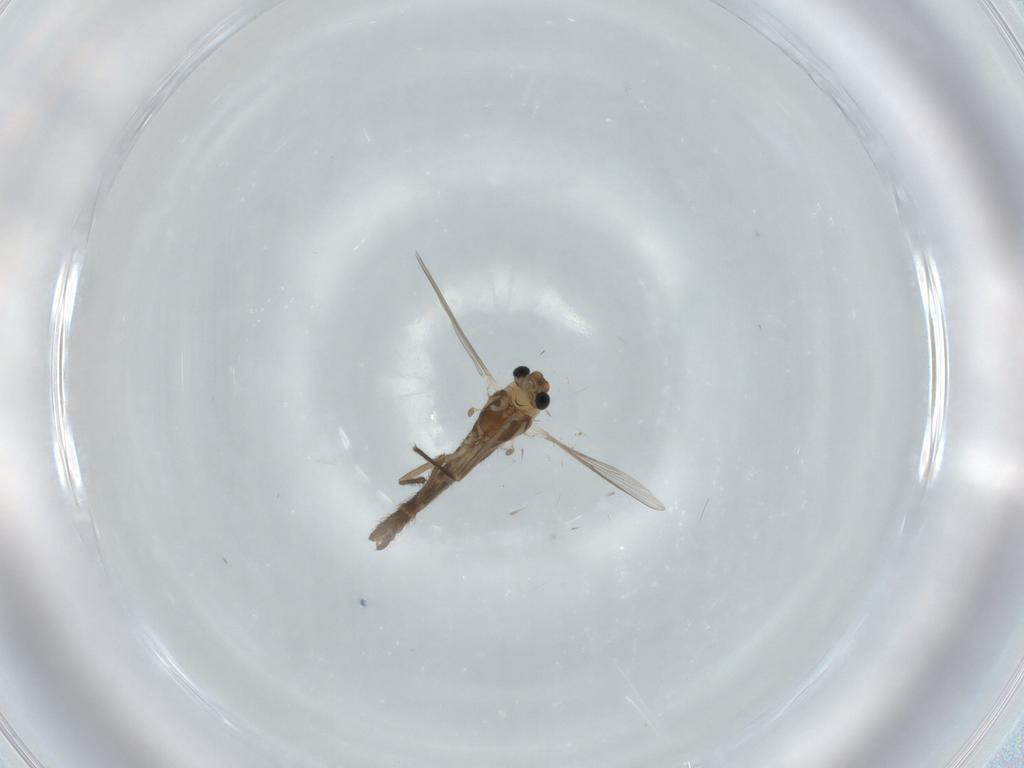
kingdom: Animalia
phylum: Arthropoda
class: Insecta
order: Diptera
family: Chironomidae
